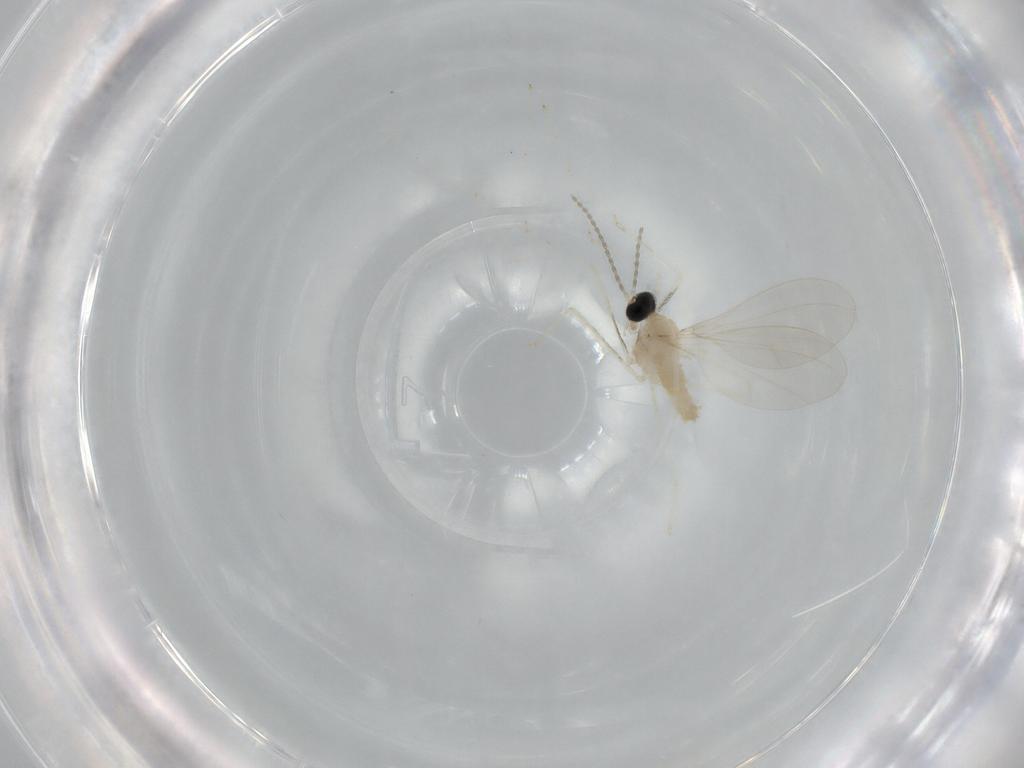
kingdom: Animalia
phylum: Arthropoda
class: Insecta
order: Diptera
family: Cecidomyiidae
